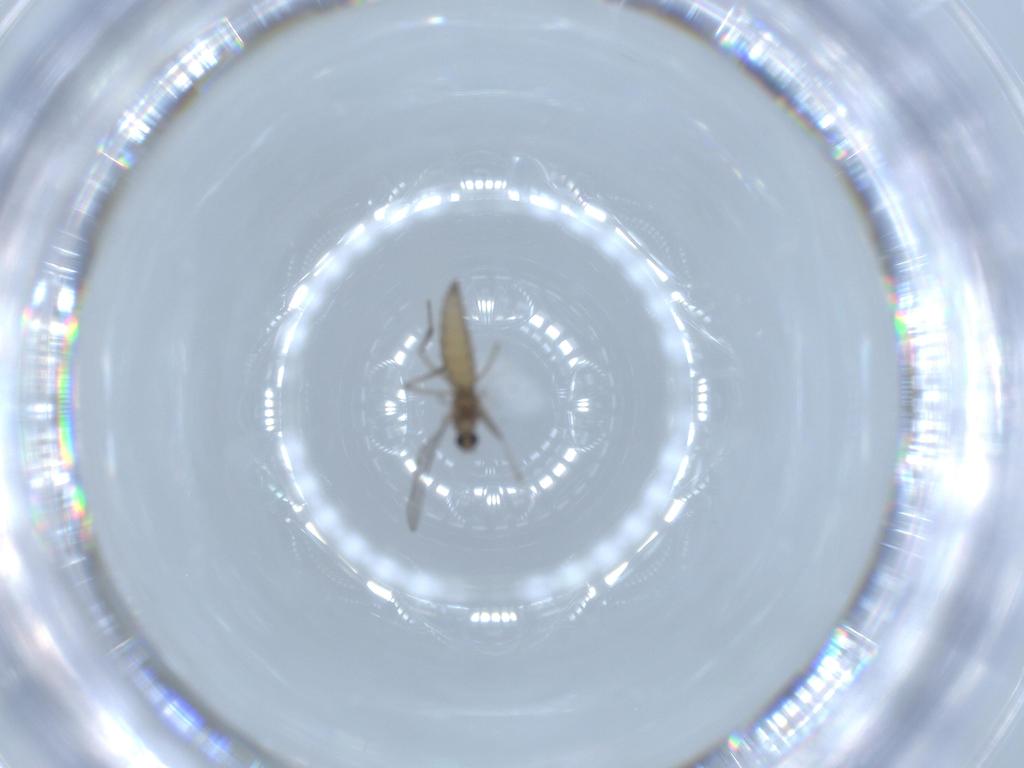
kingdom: Animalia
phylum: Arthropoda
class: Insecta
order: Diptera
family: Cecidomyiidae
